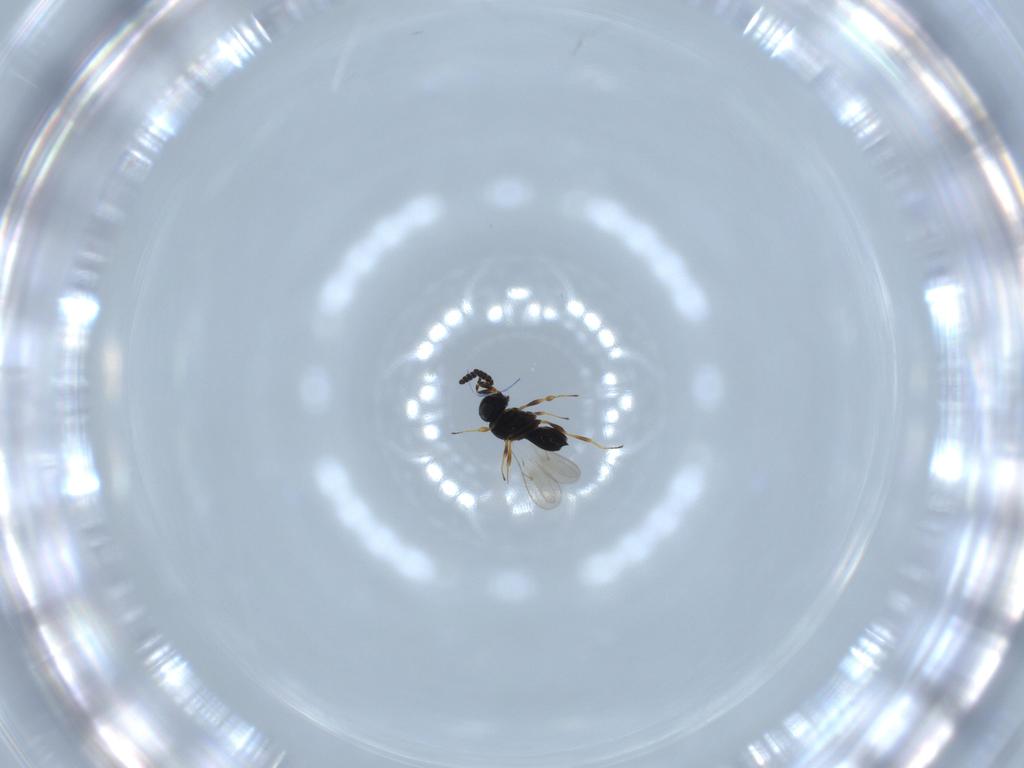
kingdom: Animalia
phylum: Arthropoda
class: Insecta
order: Hymenoptera
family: Scelionidae
